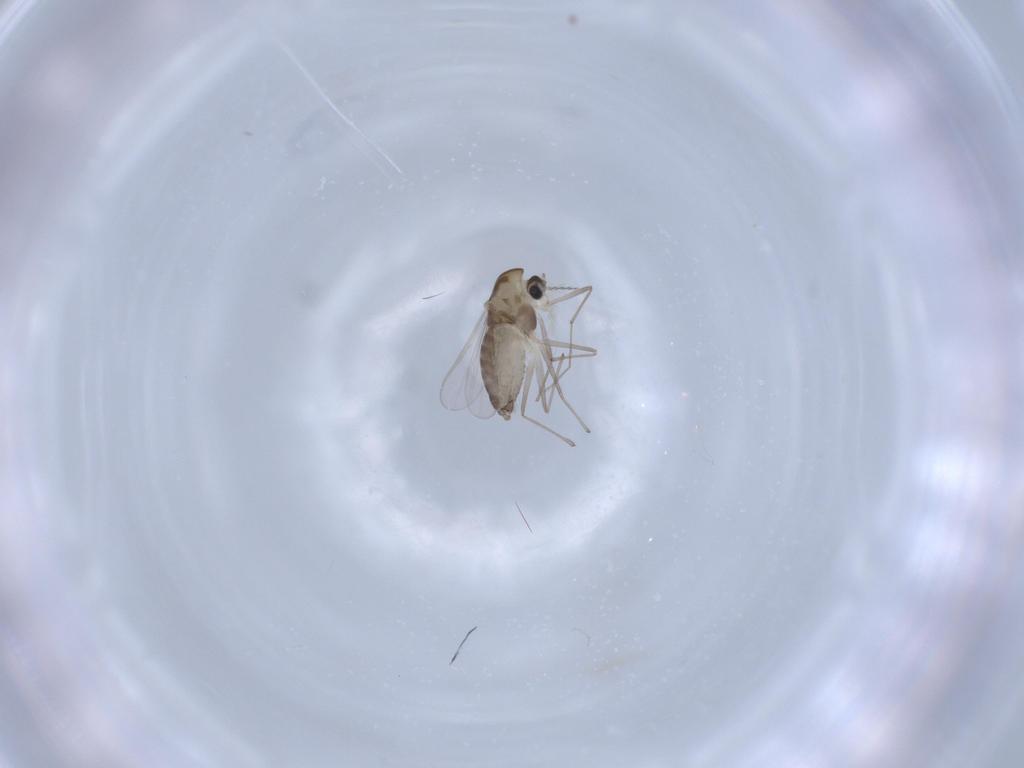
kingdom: Animalia
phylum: Arthropoda
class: Insecta
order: Diptera
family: Chironomidae
